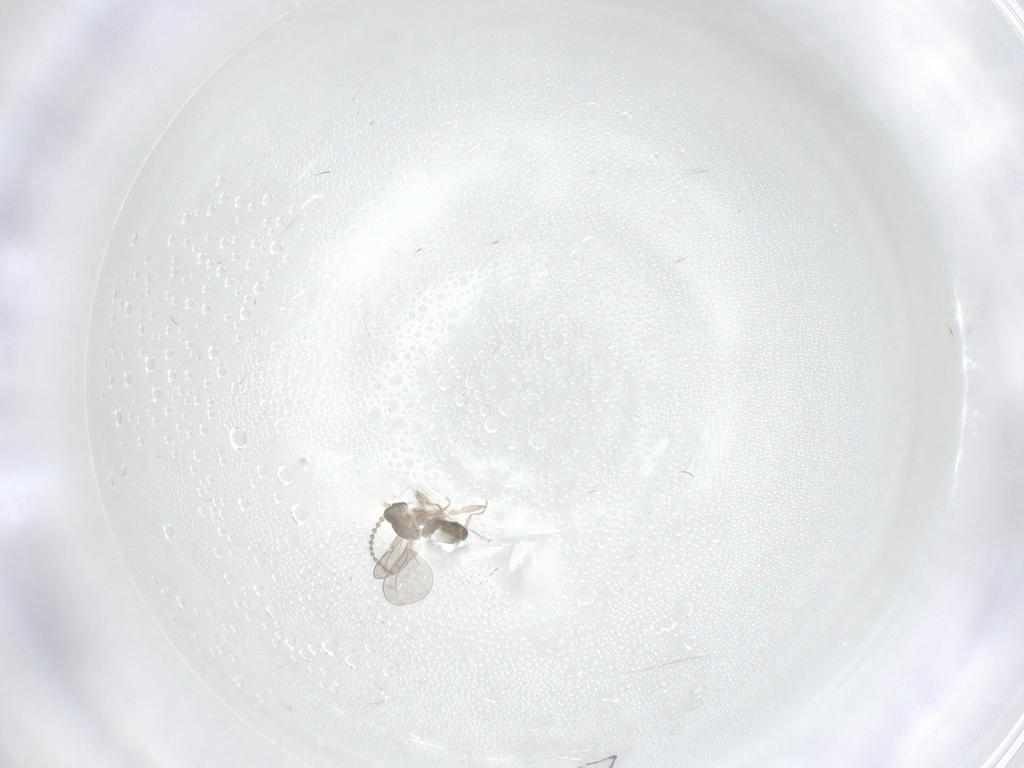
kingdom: Animalia
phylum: Arthropoda
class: Insecta
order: Diptera
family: Cecidomyiidae
